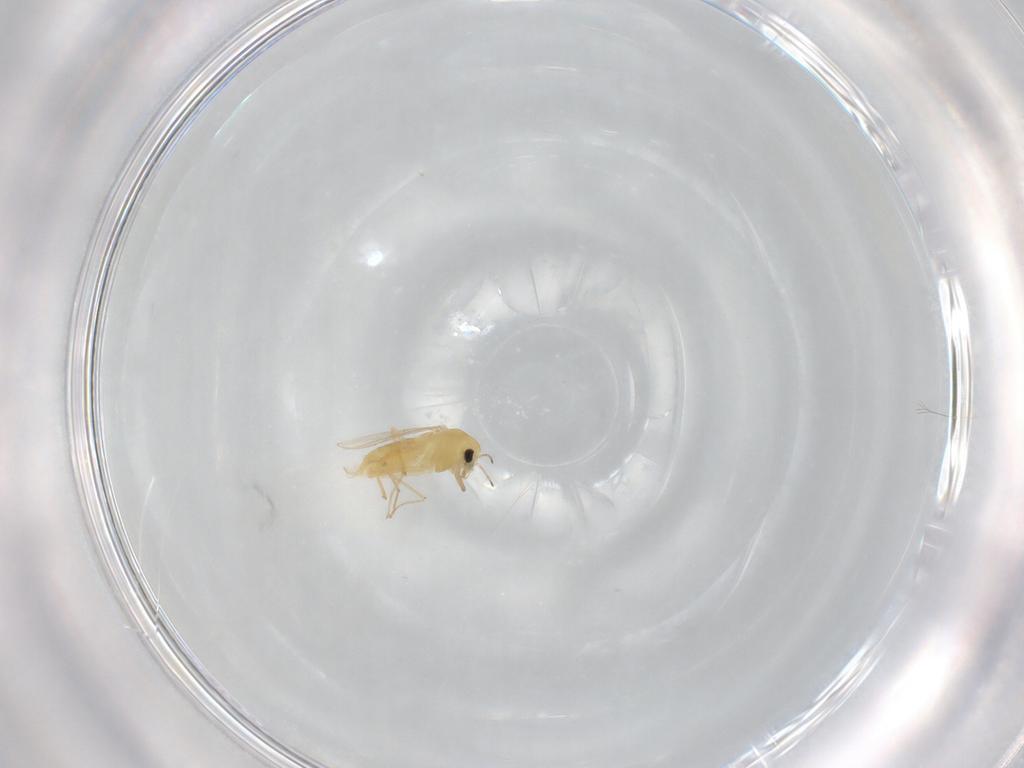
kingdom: Animalia
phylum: Arthropoda
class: Insecta
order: Diptera
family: Chironomidae
